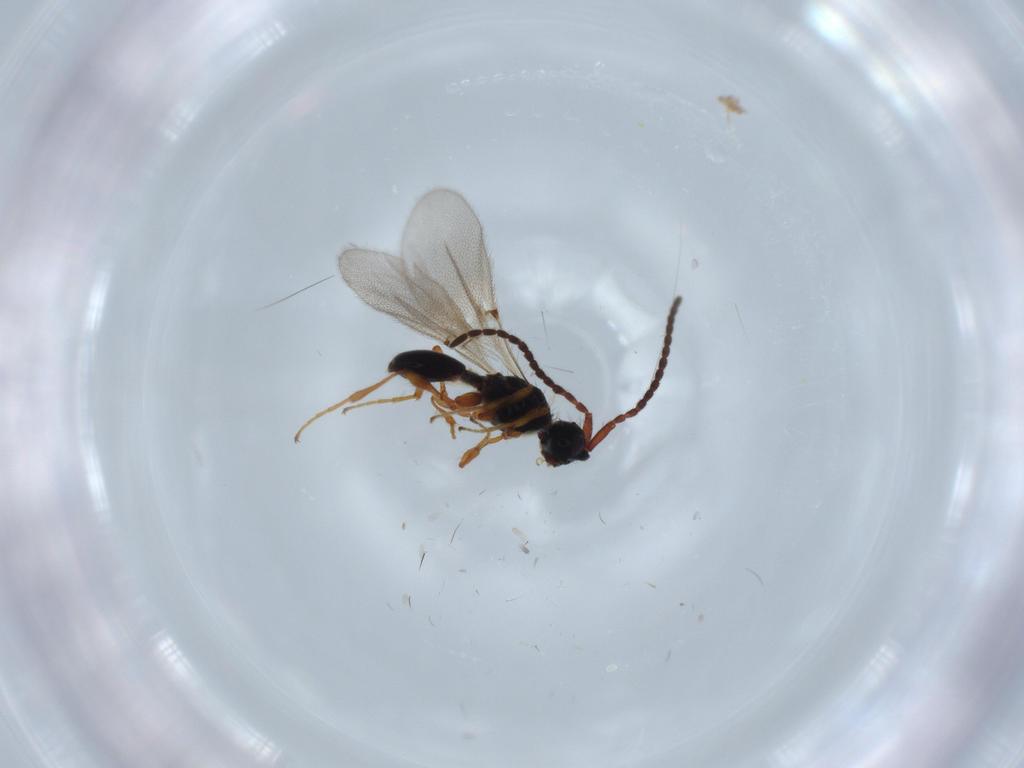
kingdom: Animalia
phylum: Arthropoda
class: Insecta
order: Hymenoptera
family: Diapriidae
